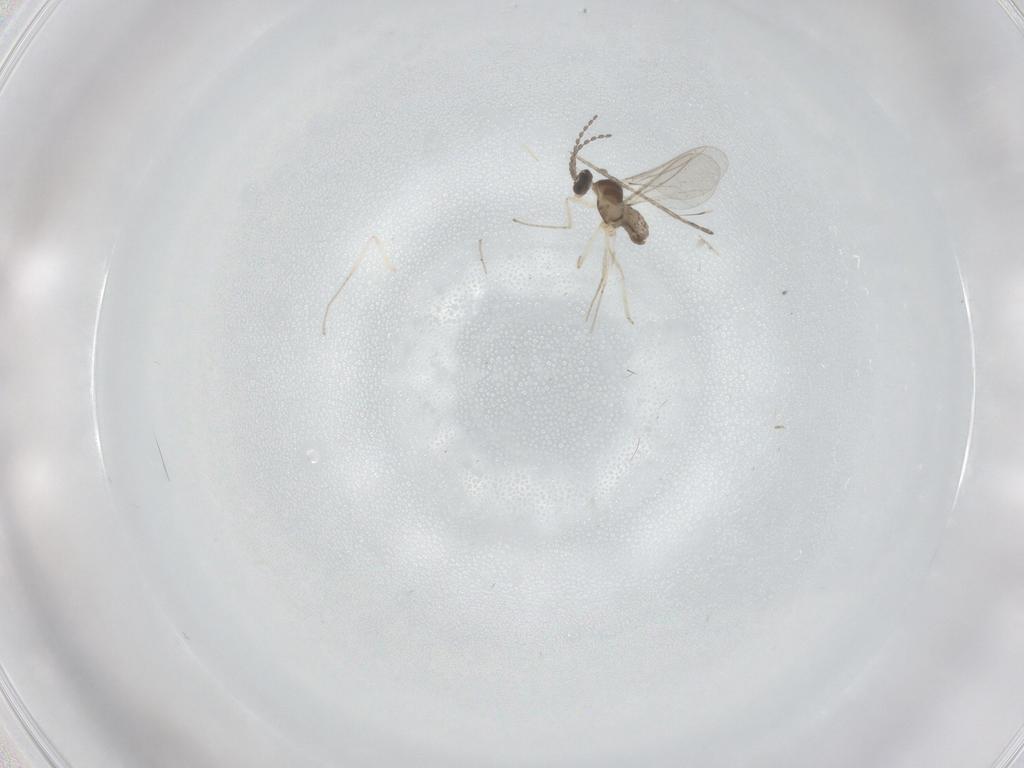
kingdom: Animalia
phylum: Arthropoda
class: Insecta
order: Diptera
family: Cecidomyiidae
